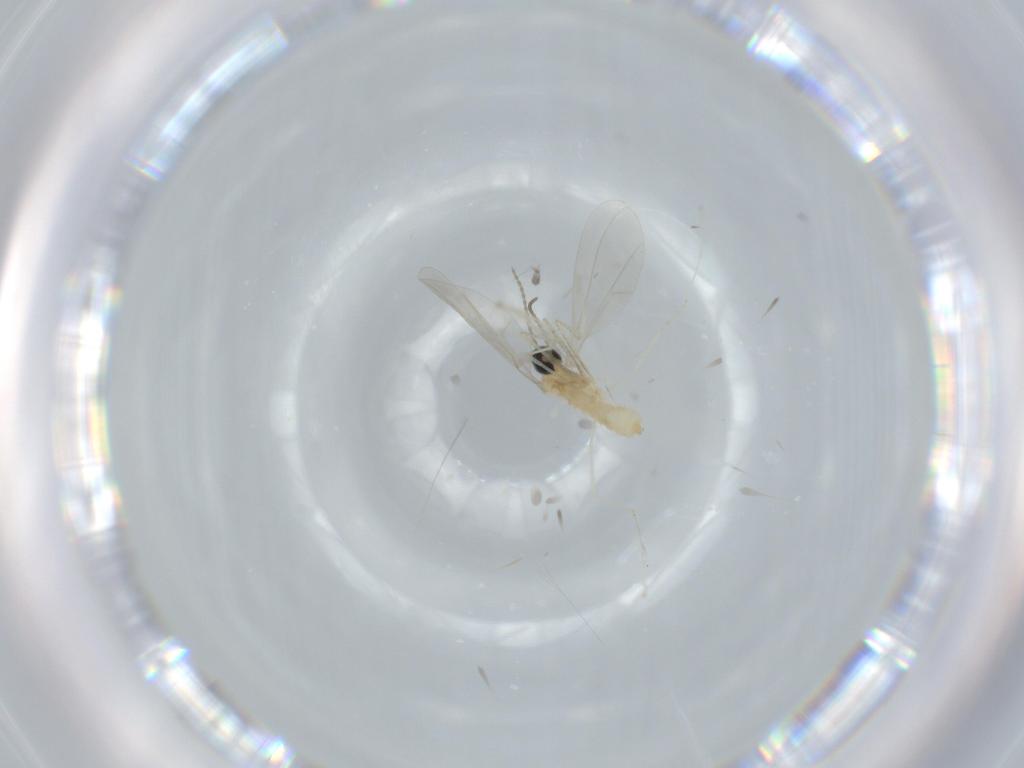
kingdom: Animalia
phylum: Arthropoda
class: Insecta
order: Diptera
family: Cecidomyiidae
